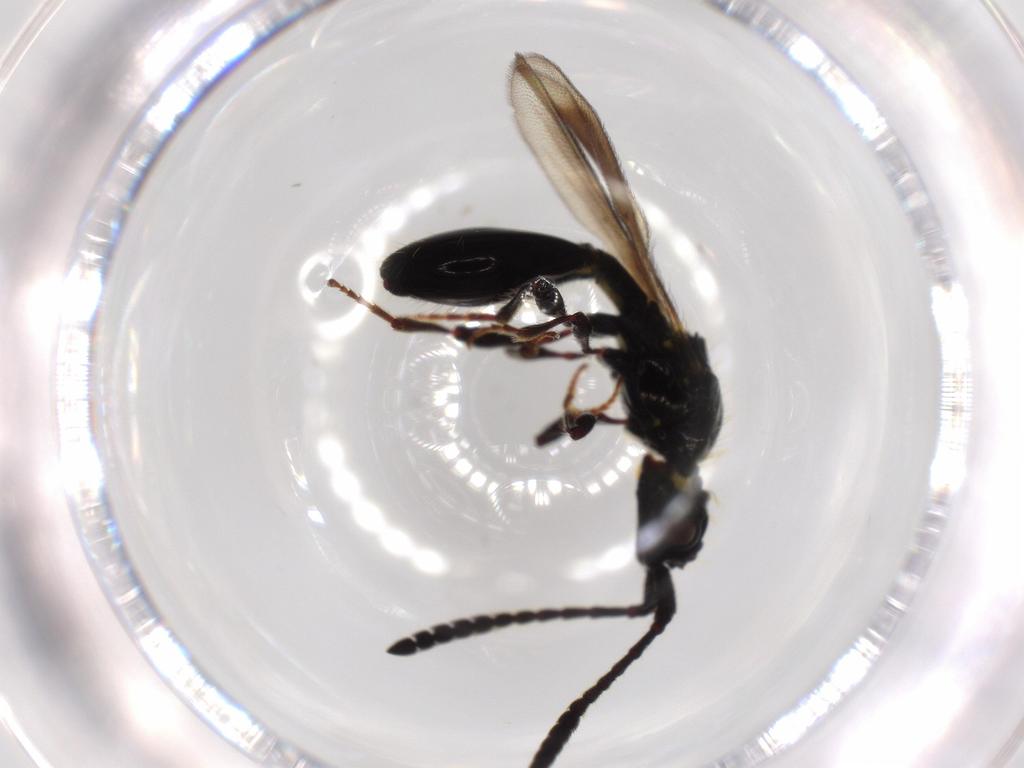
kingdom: Animalia
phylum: Arthropoda
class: Insecta
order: Hymenoptera
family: Diapriidae
